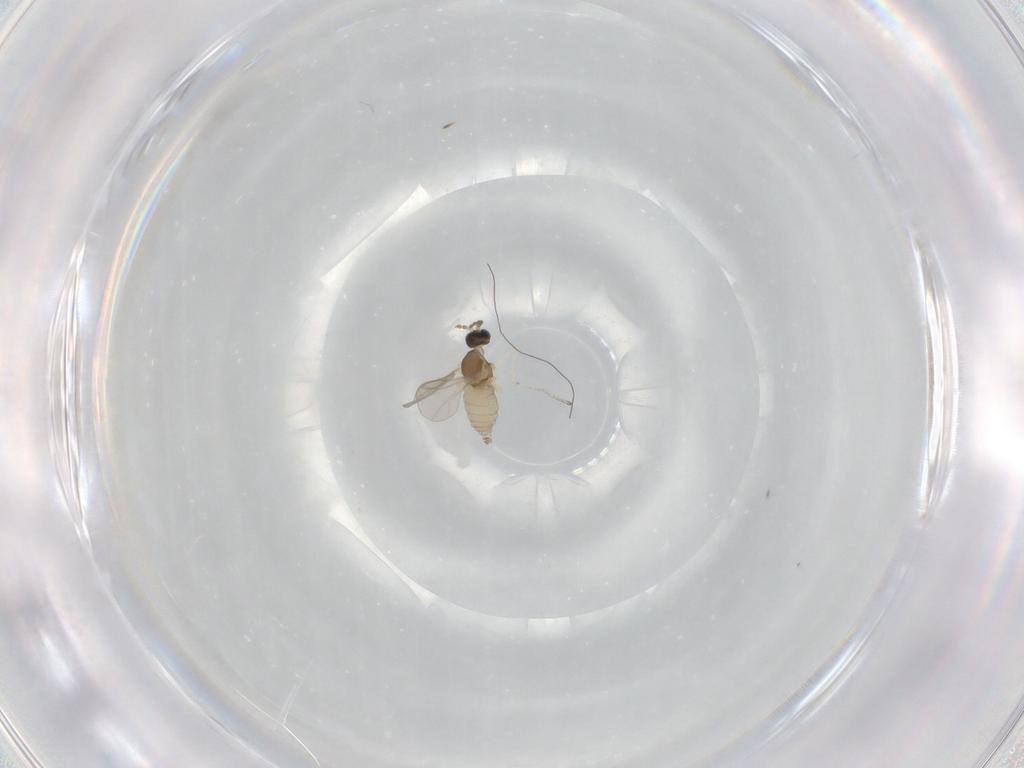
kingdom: Animalia
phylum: Arthropoda
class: Insecta
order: Diptera
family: Cecidomyiidae
